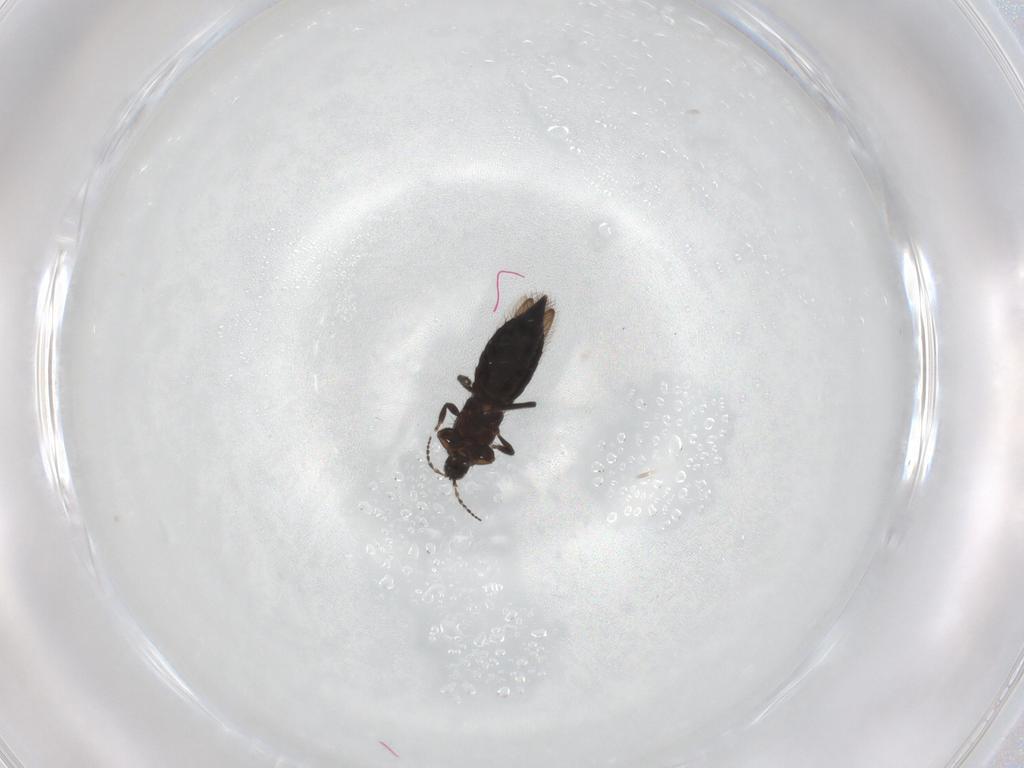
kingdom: Animalia
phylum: Arthropoda
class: Insecta
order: Thysanoptera
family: Melanthripidae
